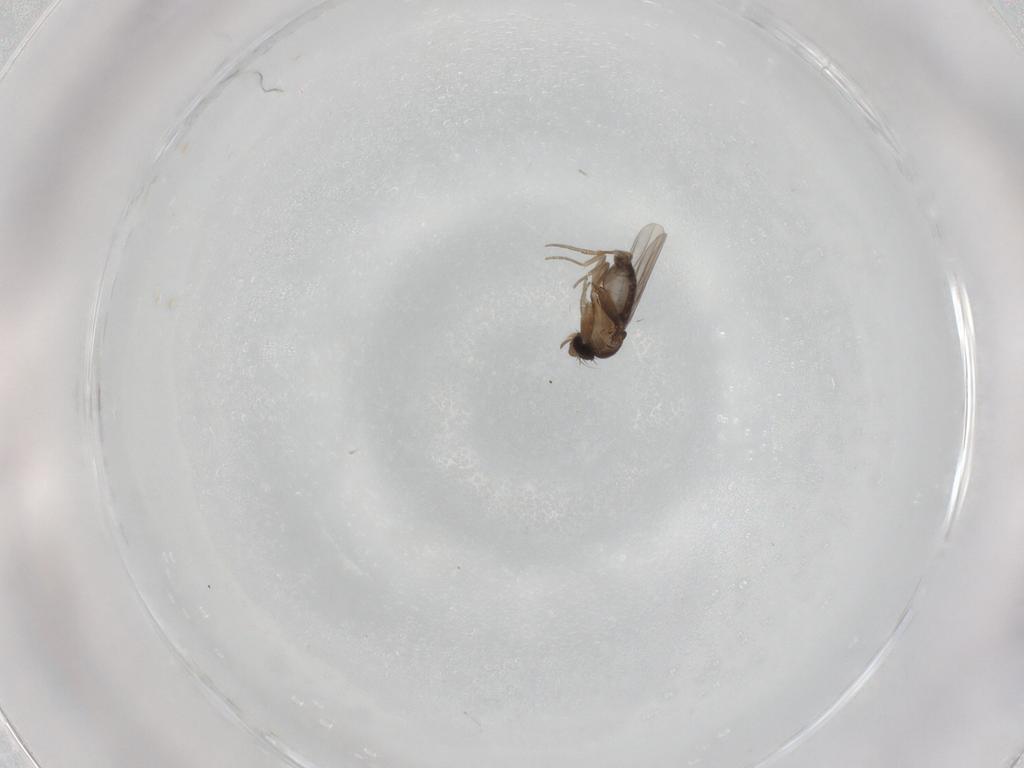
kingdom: Animalia
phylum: Arthropoda
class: Insecta
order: Diptera
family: Phoridae
